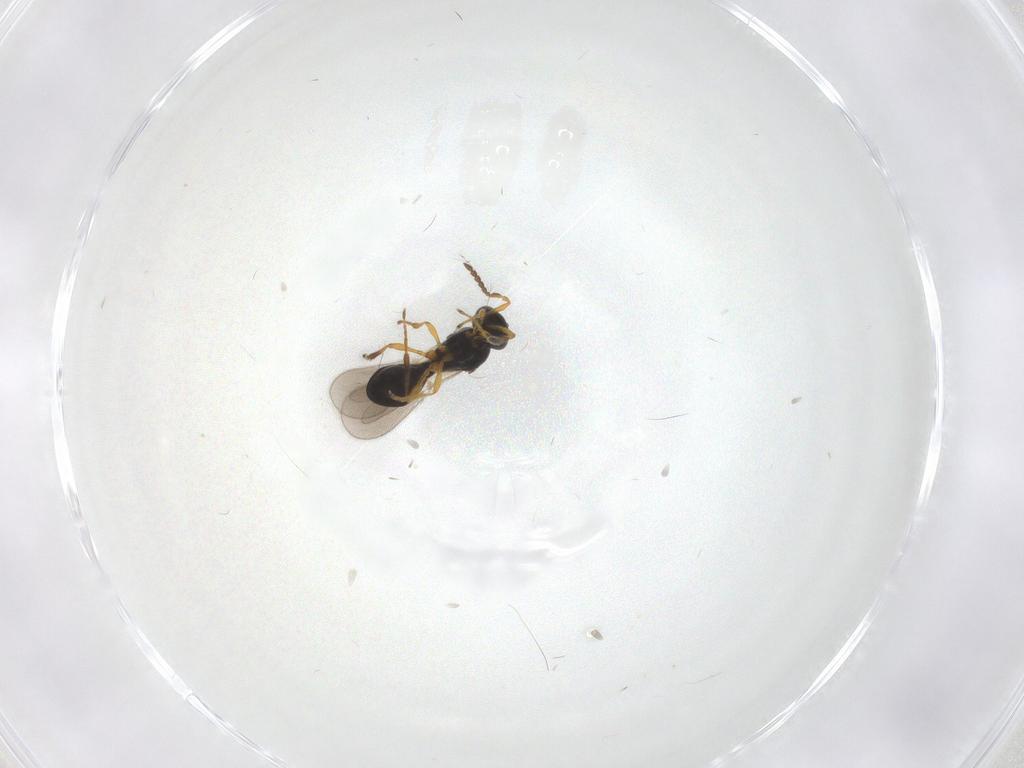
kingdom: Animalia
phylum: Arthropoda
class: Insecta
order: Hymenoptera
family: Platygastridae
